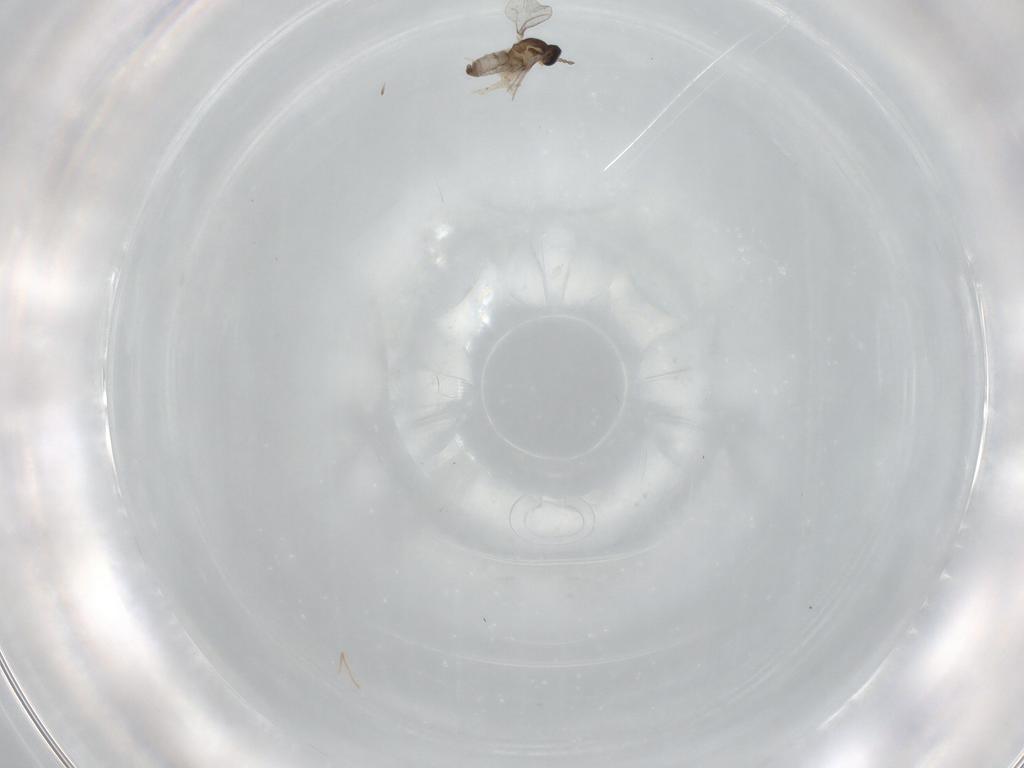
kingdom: Animalia
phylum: Arthropoda
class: Insecta
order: Diptera
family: Cecidomyiidae
